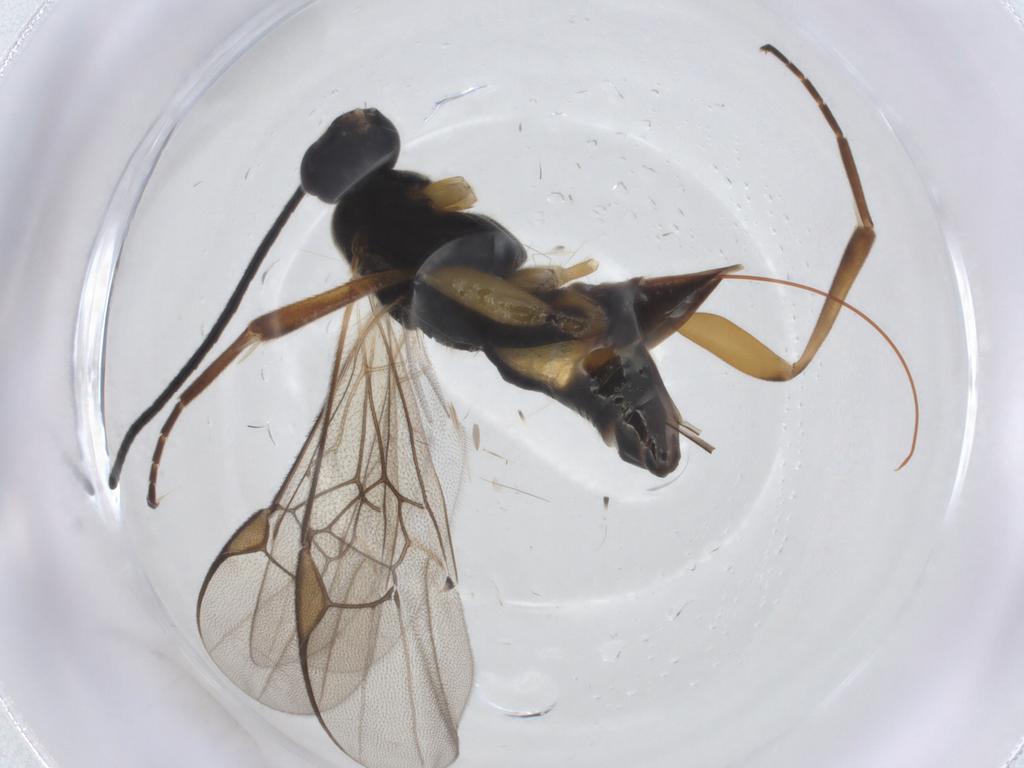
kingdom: Animalia
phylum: Arthropoda
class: Insecta
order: Hymenoptera
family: Braconidae
